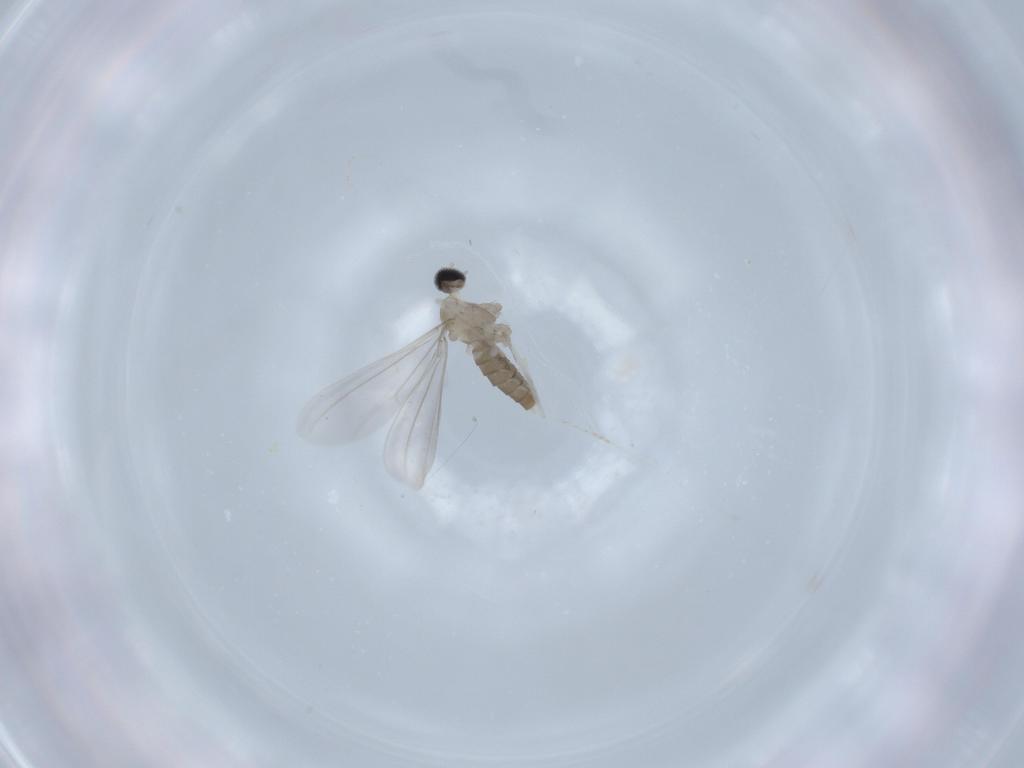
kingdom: Animalia
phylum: Arthropoda
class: Insecta
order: Diptera
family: Cecidomyiidae
